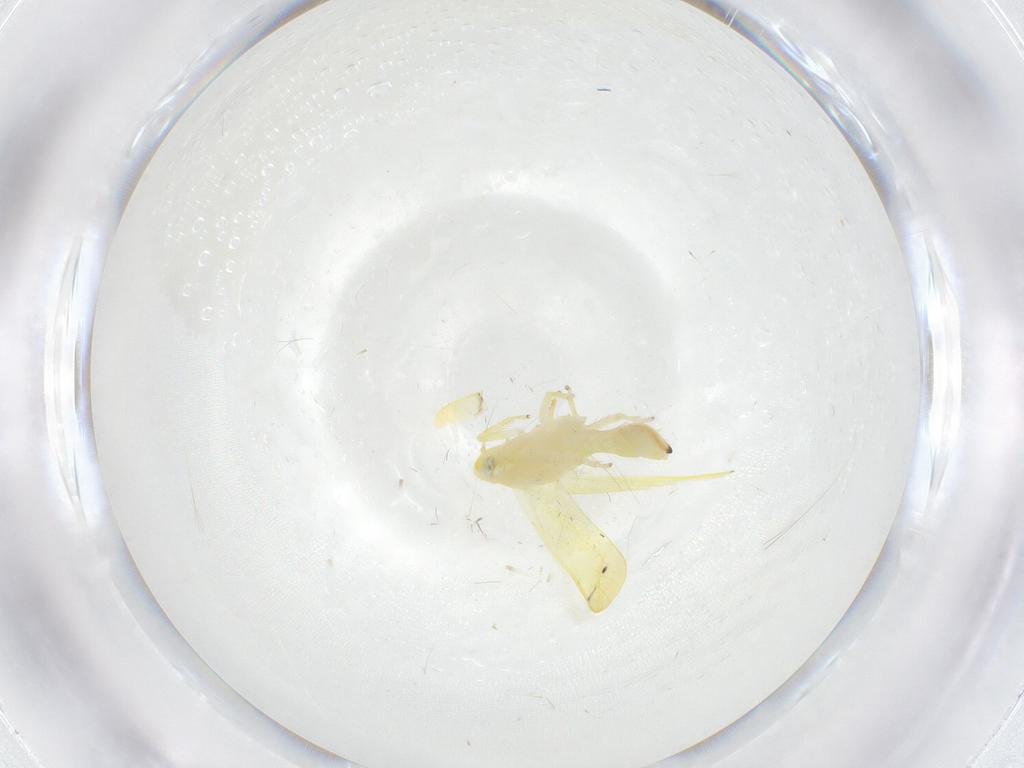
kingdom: Animalia
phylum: Arthropoda
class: Insecta
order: Hemiptera
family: Cicadellidae
